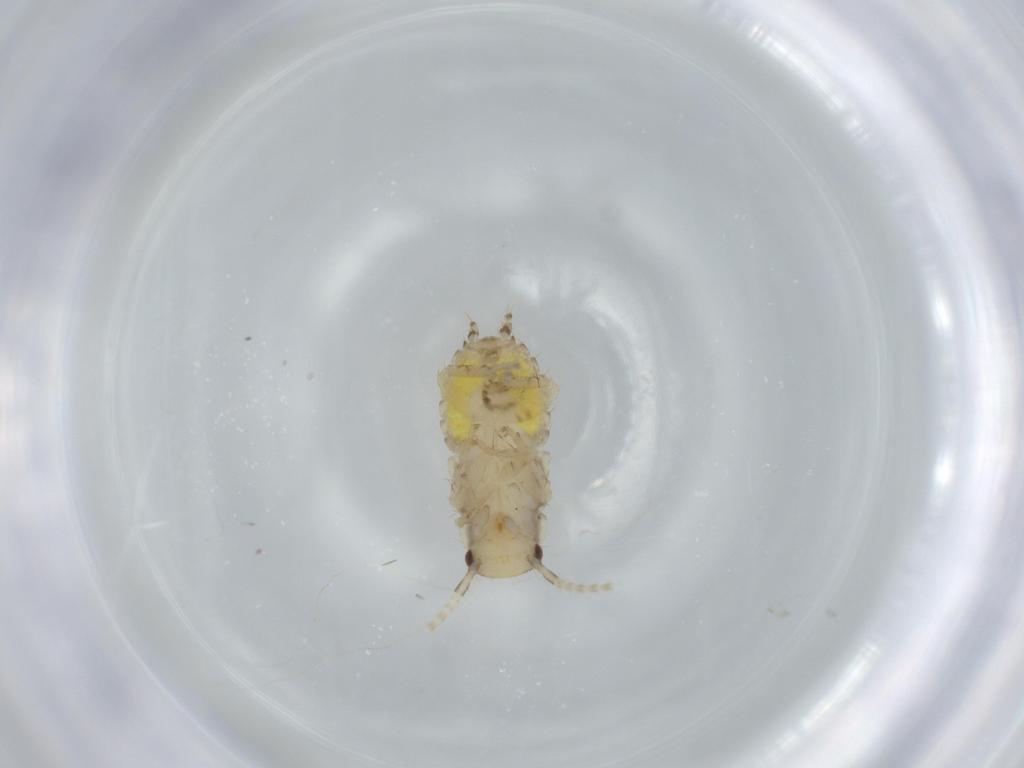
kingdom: Animalia
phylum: Arthropoda
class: Insecta
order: Blattodea
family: Ectobiidae
